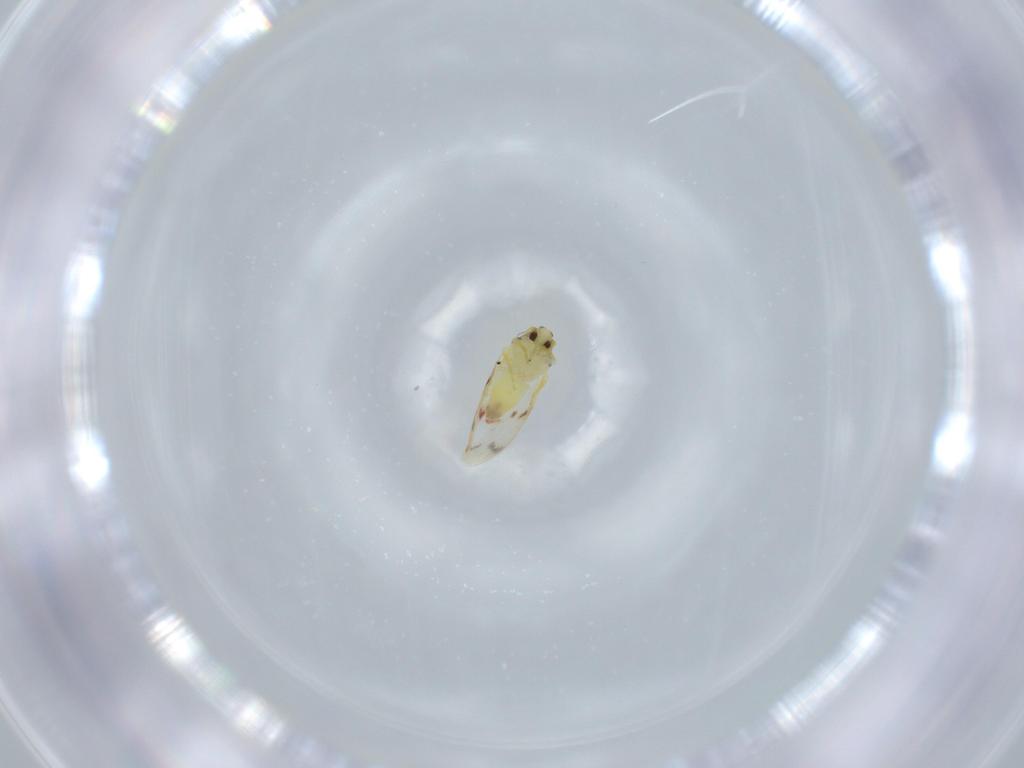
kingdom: Animalia
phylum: Arthropoda
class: Insecta
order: Hemiptera
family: Aleyrodidae
